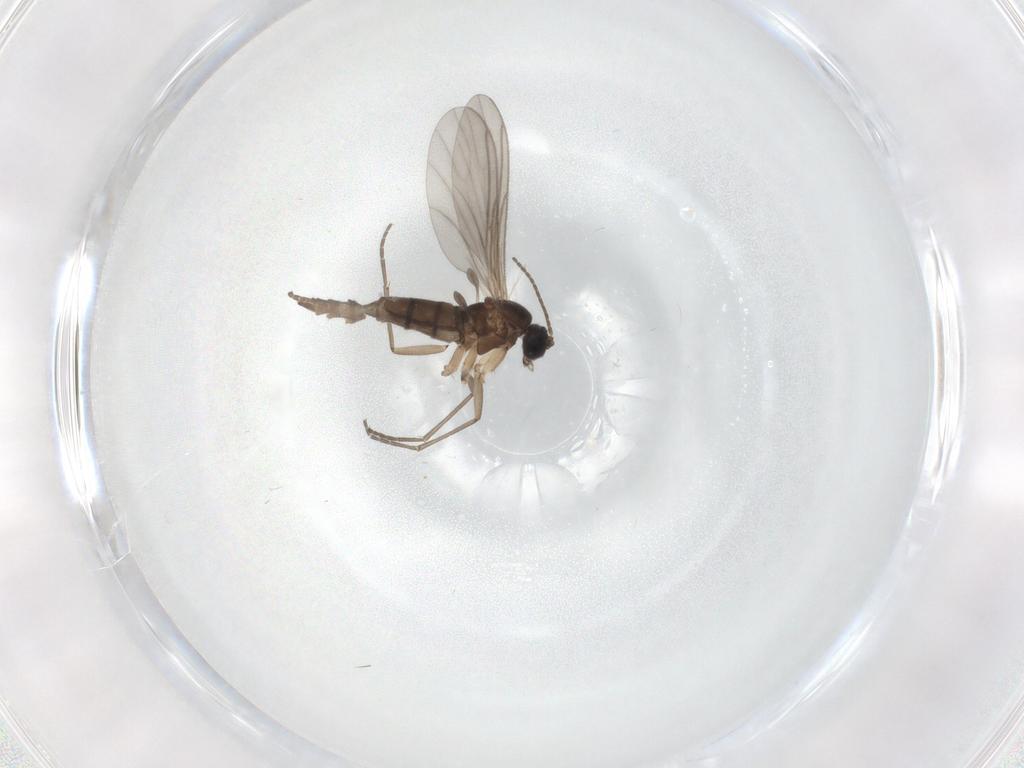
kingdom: Animalia
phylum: Arthropoda
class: Insecta
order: Diptera
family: Sciaridae
